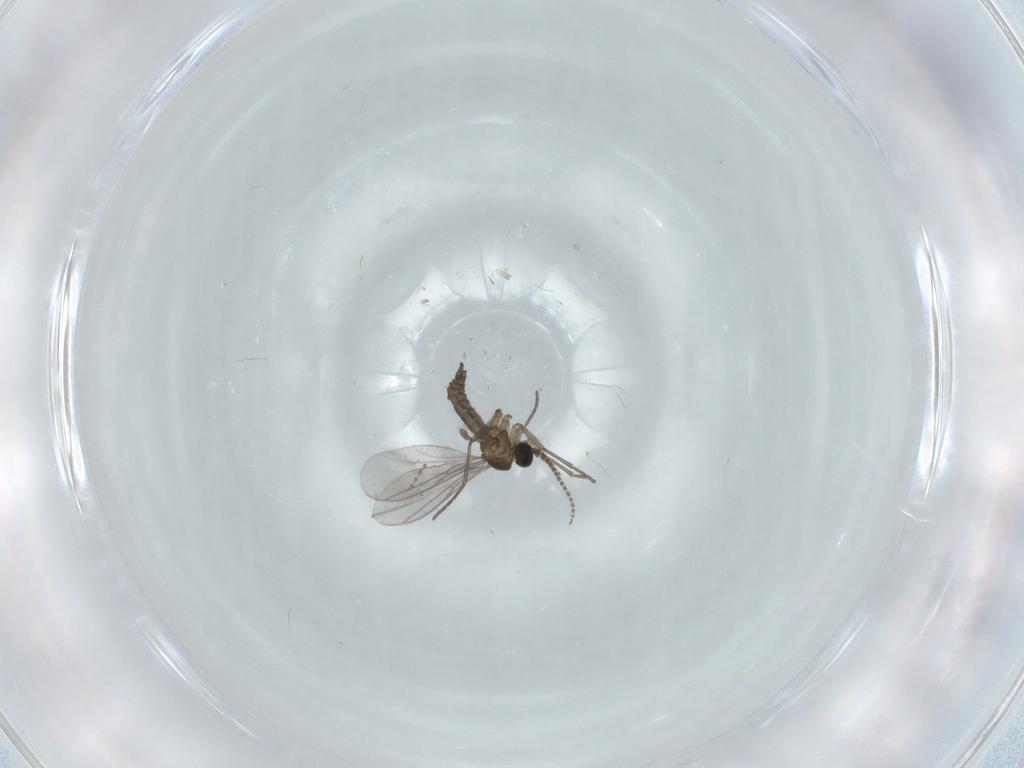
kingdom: Animalia
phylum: Arthropoda
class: Insecta
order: Diptera
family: Cecidomyiidae
